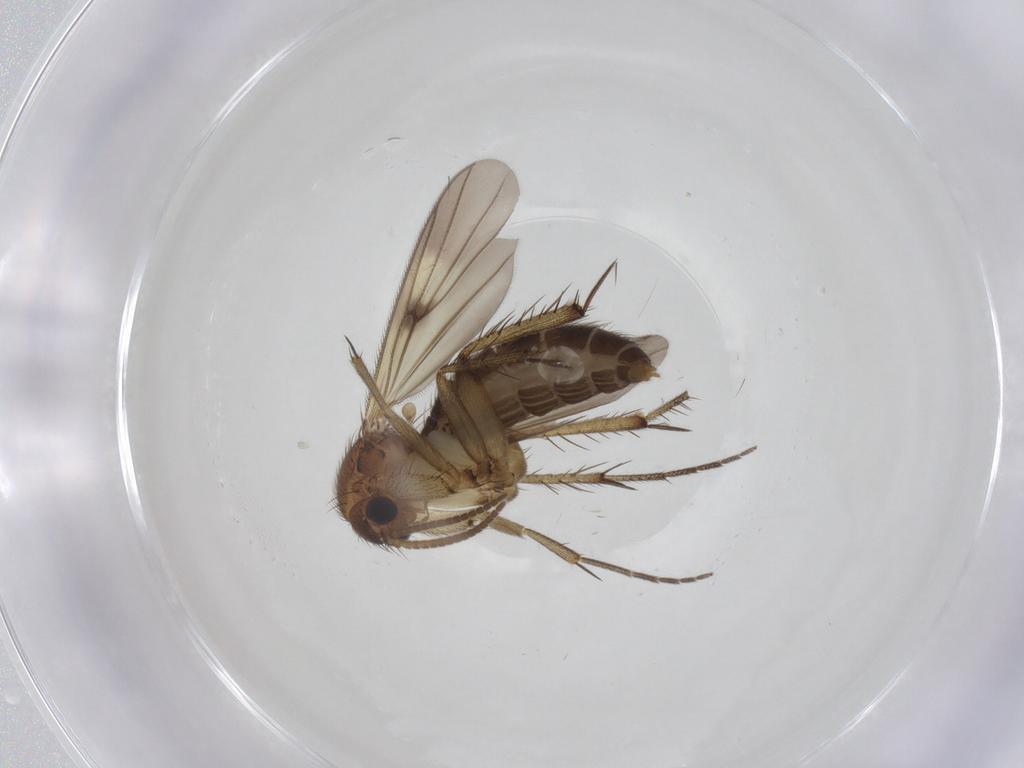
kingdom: Animalia
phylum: Arthropoda
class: Insecta
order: Diptera
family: Mycetophilidae
